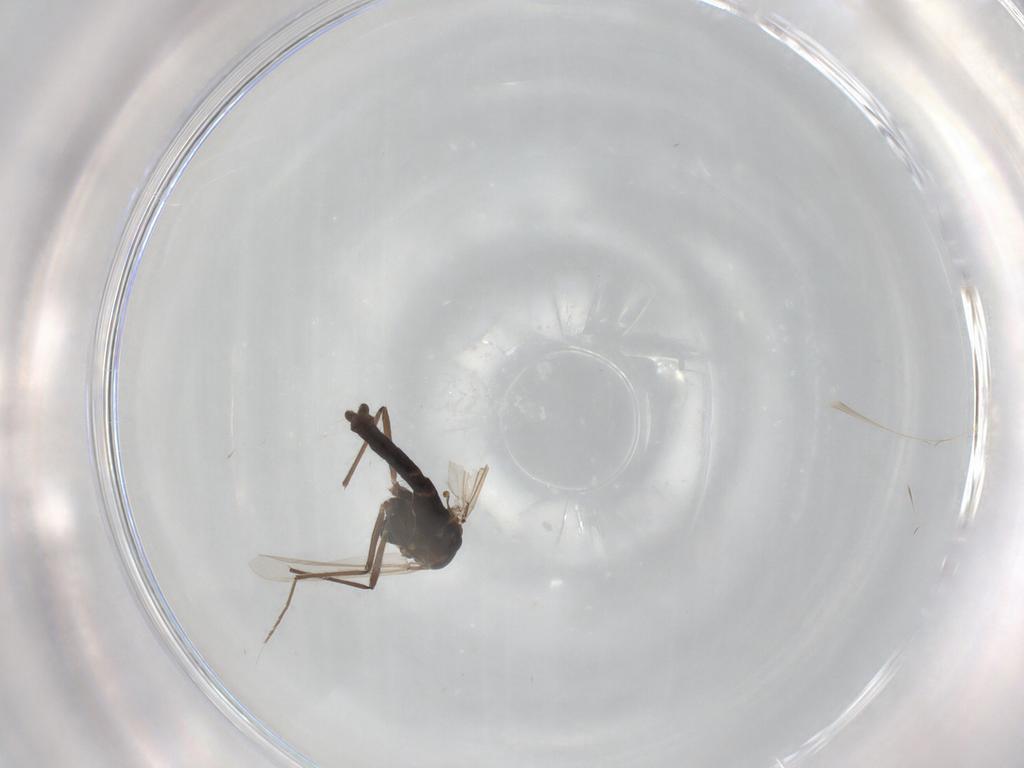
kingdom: Animalia
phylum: Arthropoda
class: Insecta
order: Diptera
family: Chironomidae
